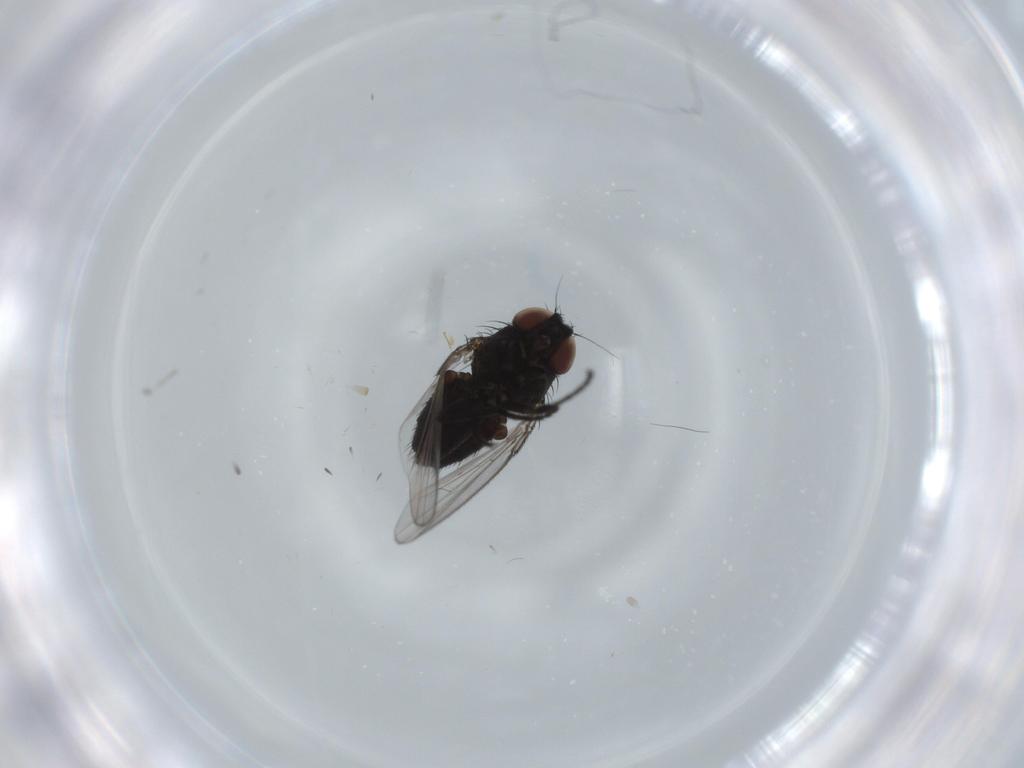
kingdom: Animalia
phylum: Arthropoda
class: Insecta
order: Diptera
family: Milichiidae
